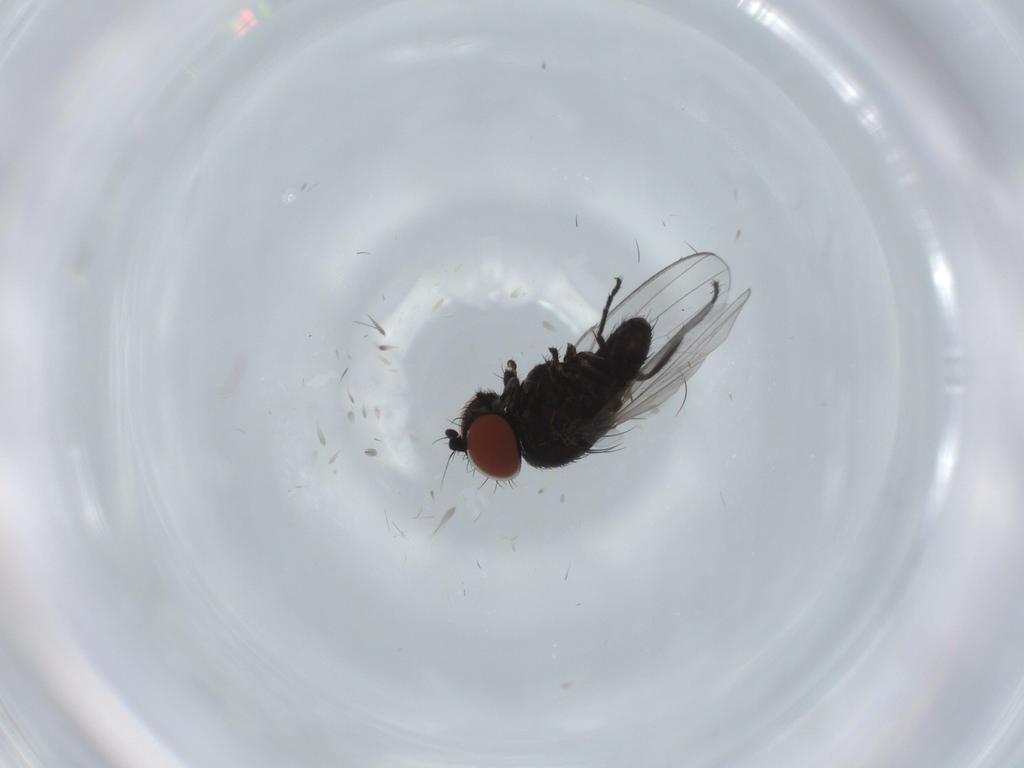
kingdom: Animalia
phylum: Arthropoda
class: Insecta
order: Diptera
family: Milichiidae
